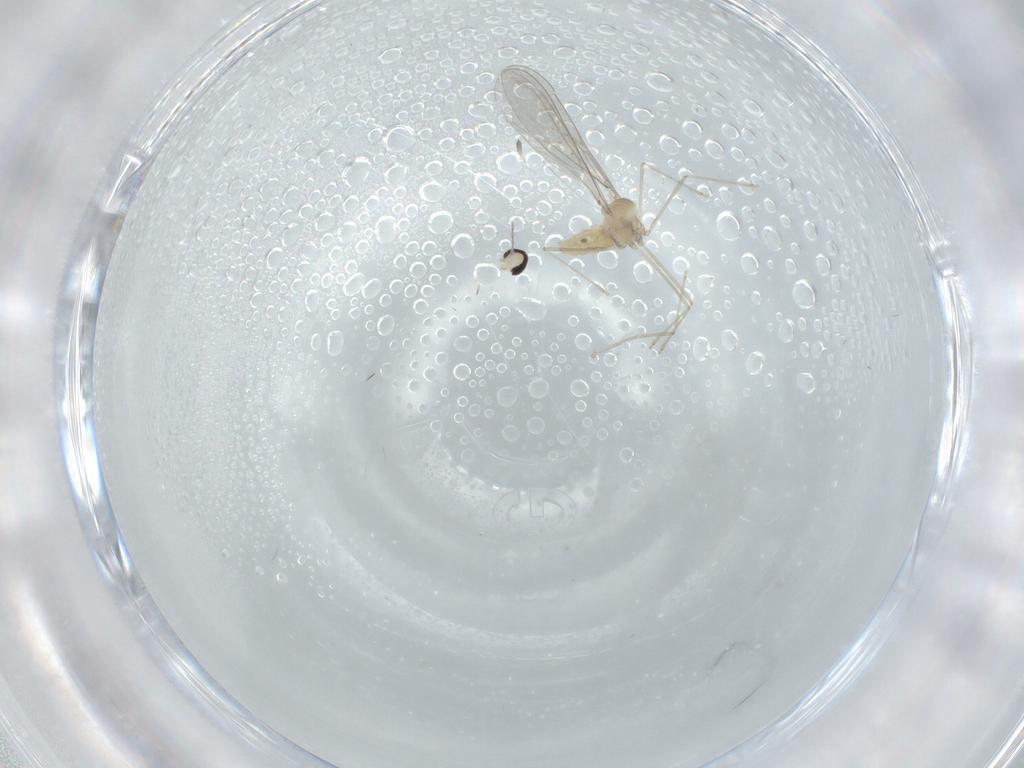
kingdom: Animalia
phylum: Arthropoda
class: Insecta
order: Diptera
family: Cecidomyiidae
